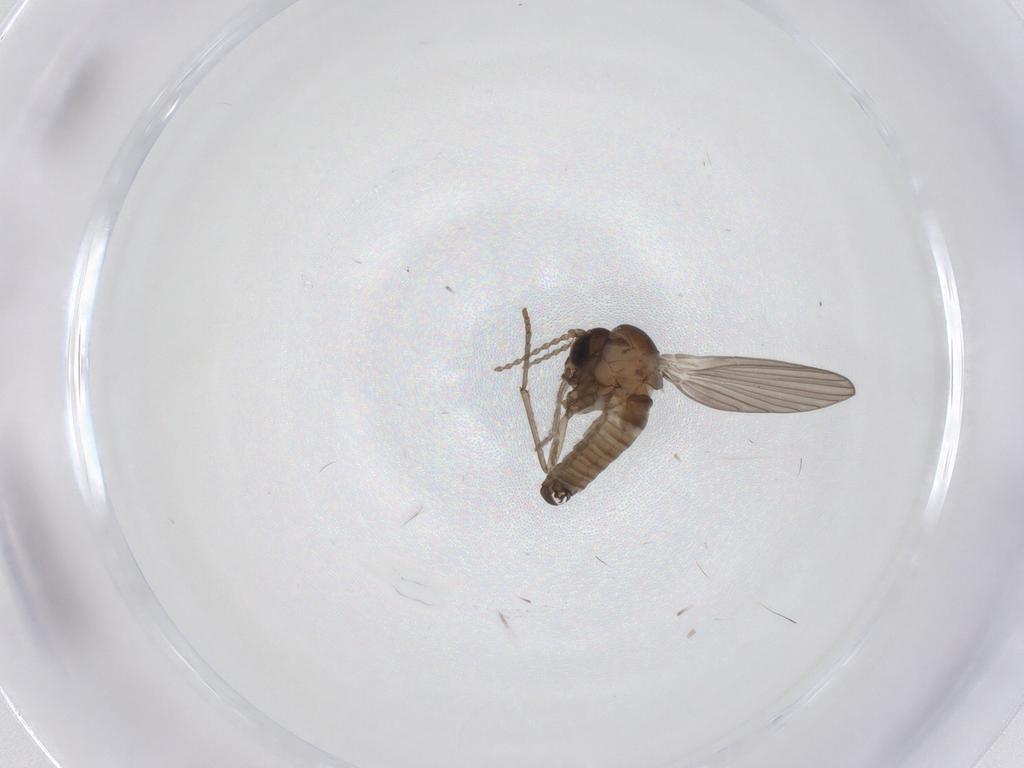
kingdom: Animalia
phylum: Arthropoda
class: Insecta
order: Diptera
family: Psychodidae
